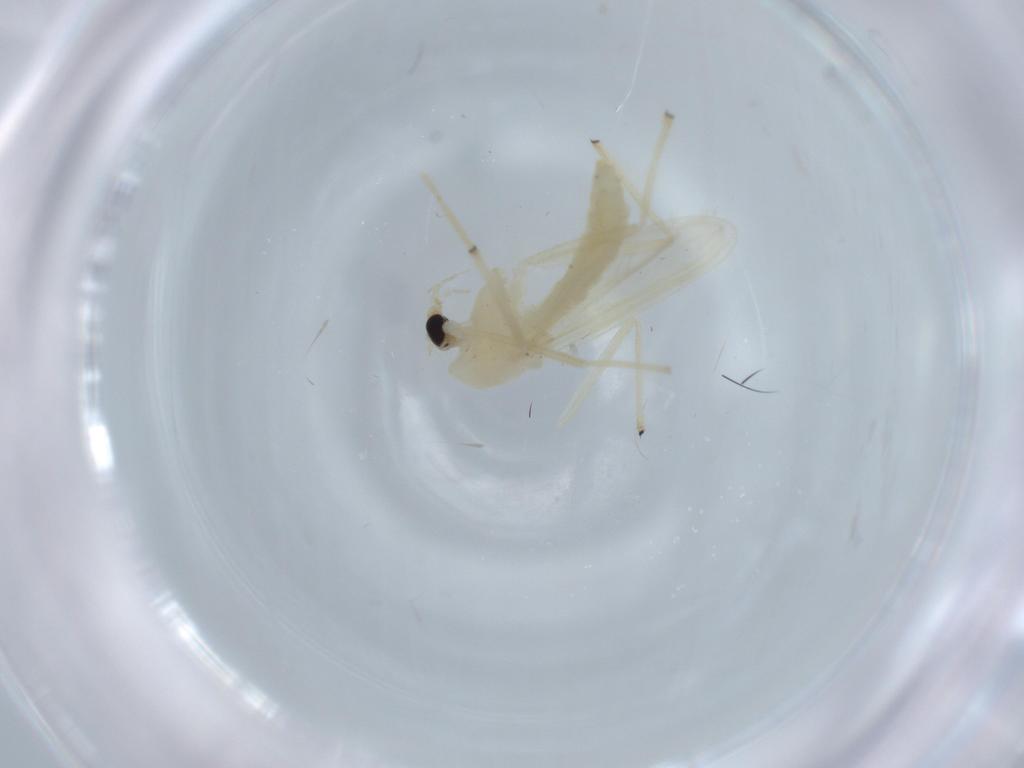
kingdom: Animalia
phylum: Arthropoda
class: Insecta
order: Diptera
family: Phoridae
